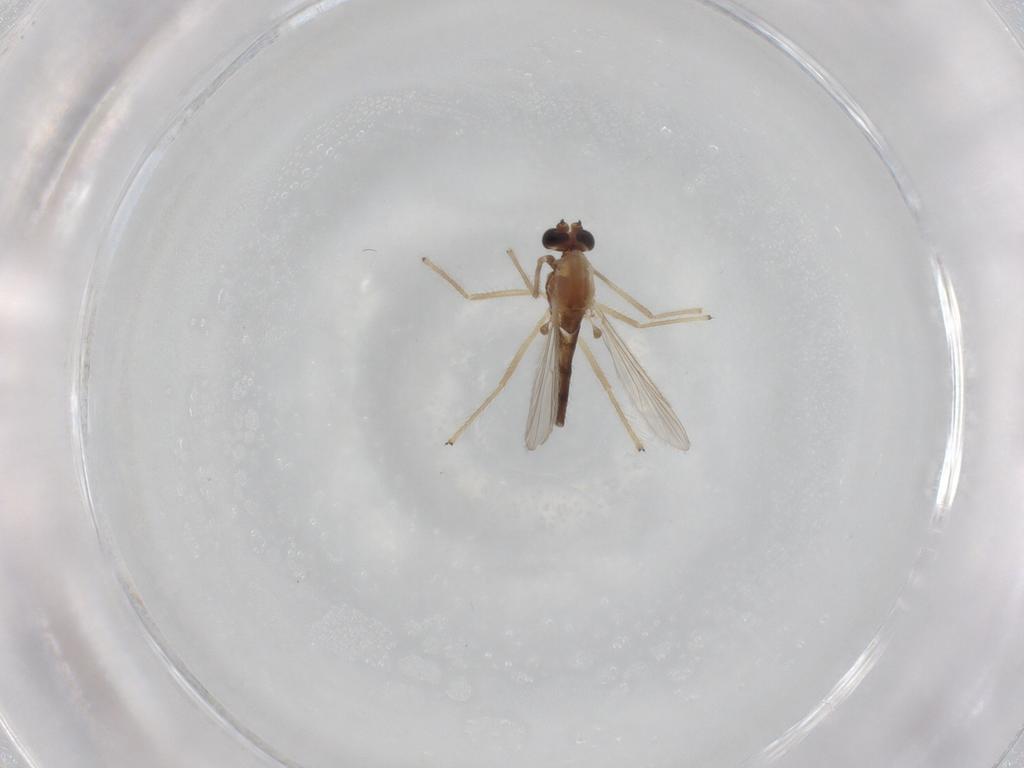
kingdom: Animalia
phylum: Arthropoda
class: Insecta
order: Diptera
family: Chironomidae
